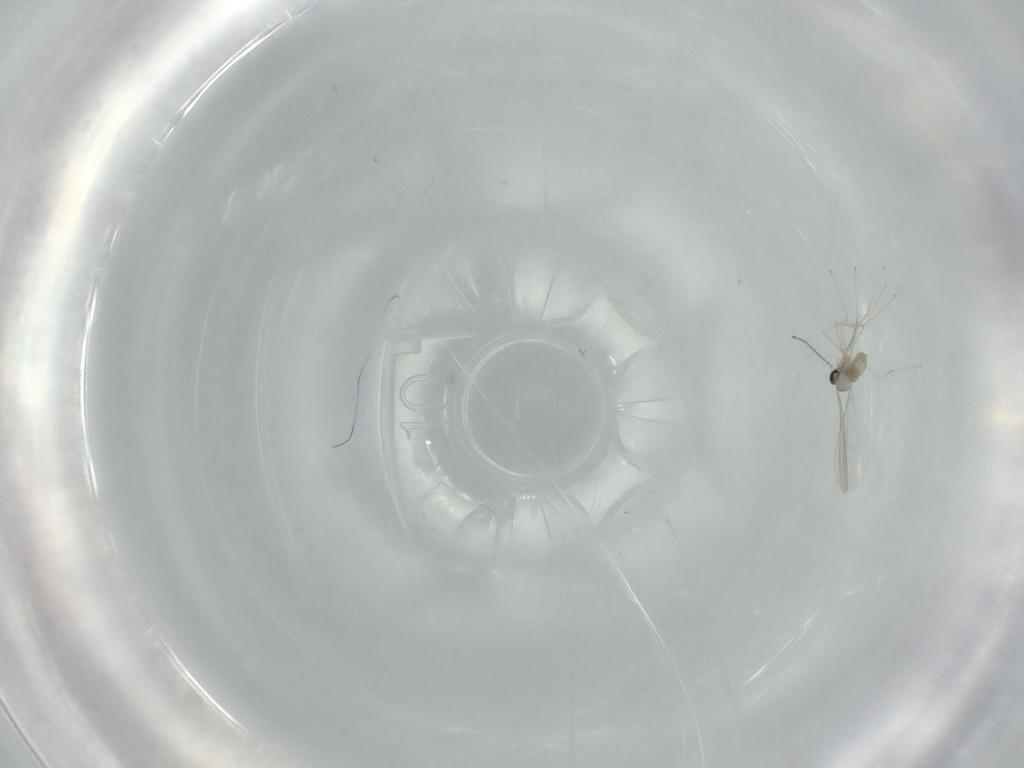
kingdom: Animalia
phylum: Arthropoda
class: Insecta
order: Diptera
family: Cecidomyiidae
